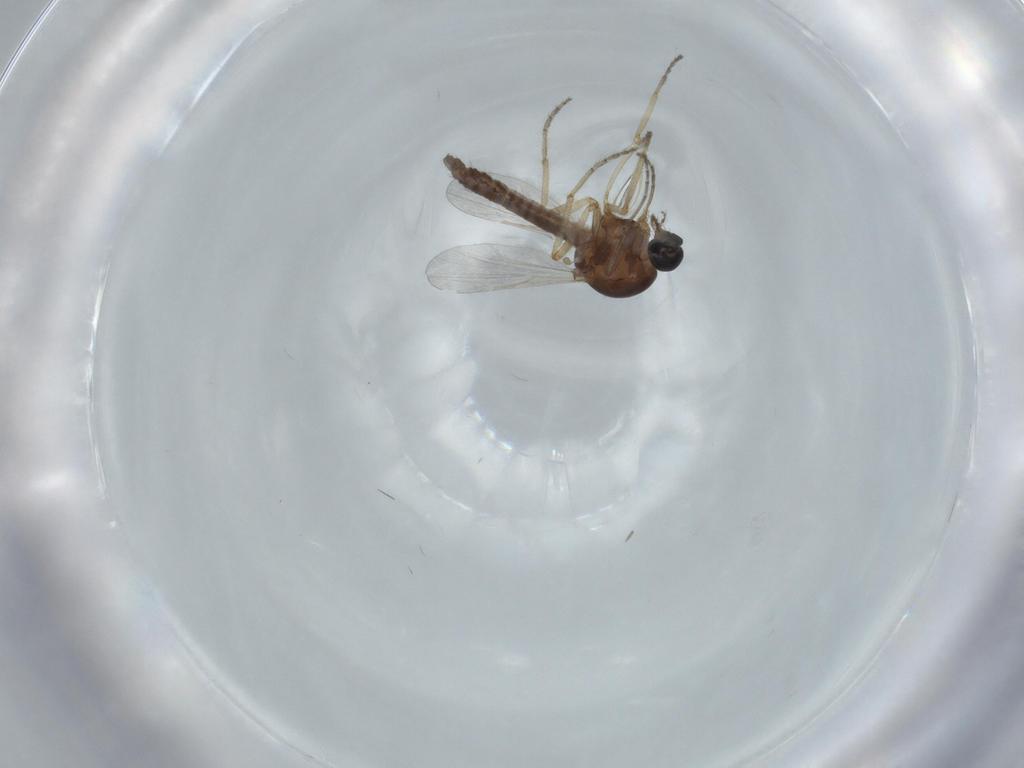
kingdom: Animalia
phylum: Arthropoda
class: Insecta
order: Diptera
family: Ceratopogonidae
